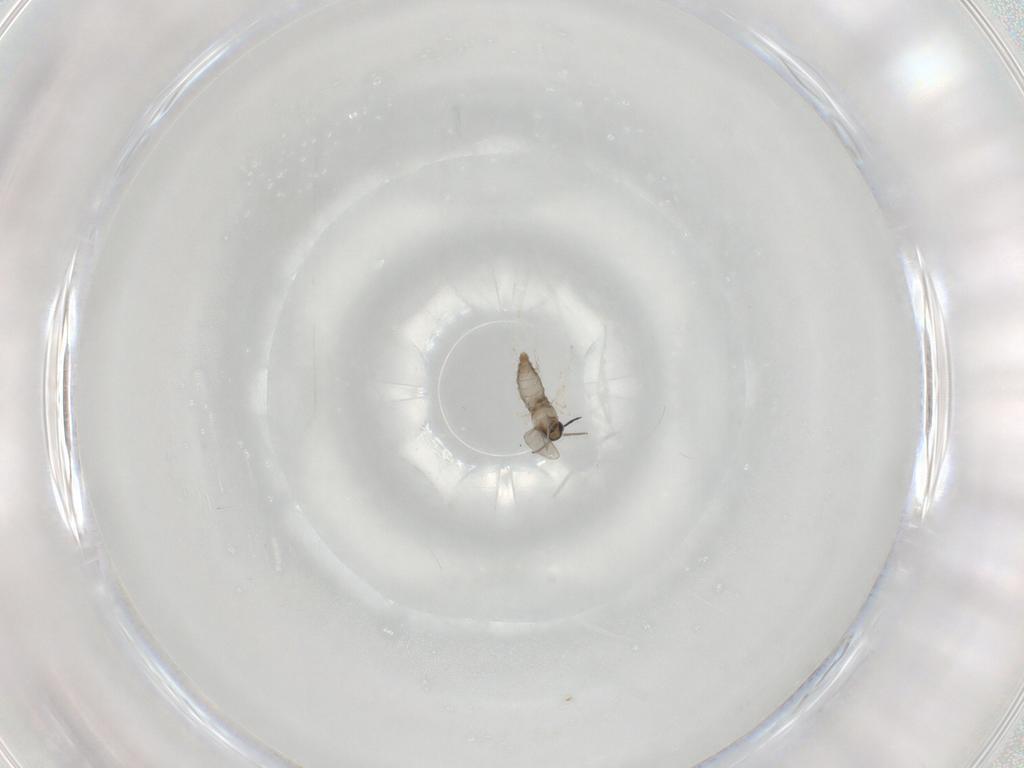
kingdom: Animalia
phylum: Arthropoda
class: Insecta
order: Diptera
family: Cecidomyiidae
